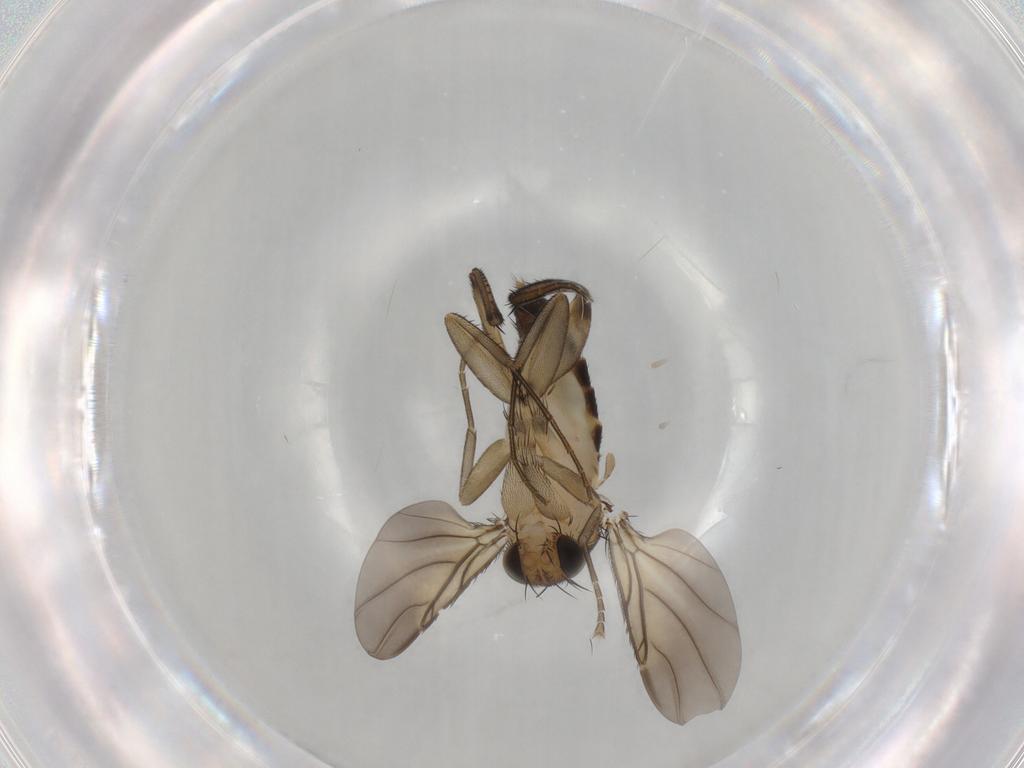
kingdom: Animalia
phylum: Arthropoda
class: Insecta
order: Diptera
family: Phoridae
